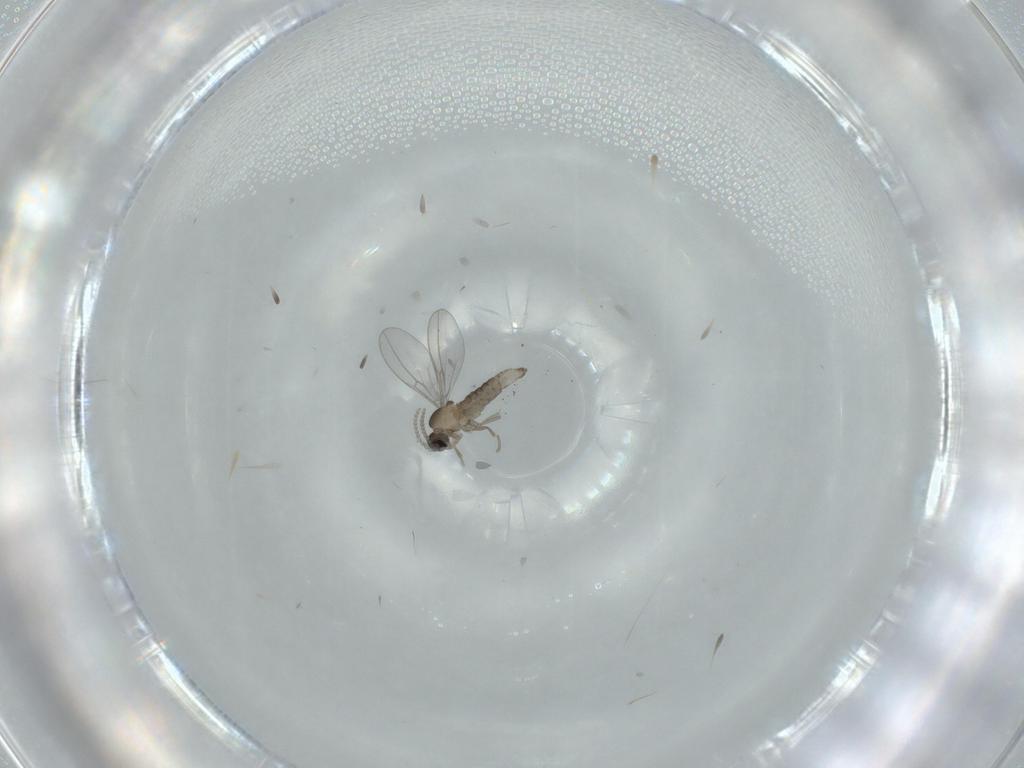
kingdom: Animalia
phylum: Arthropoda
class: Insecta
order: Diptera
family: Cecidomyiidae
